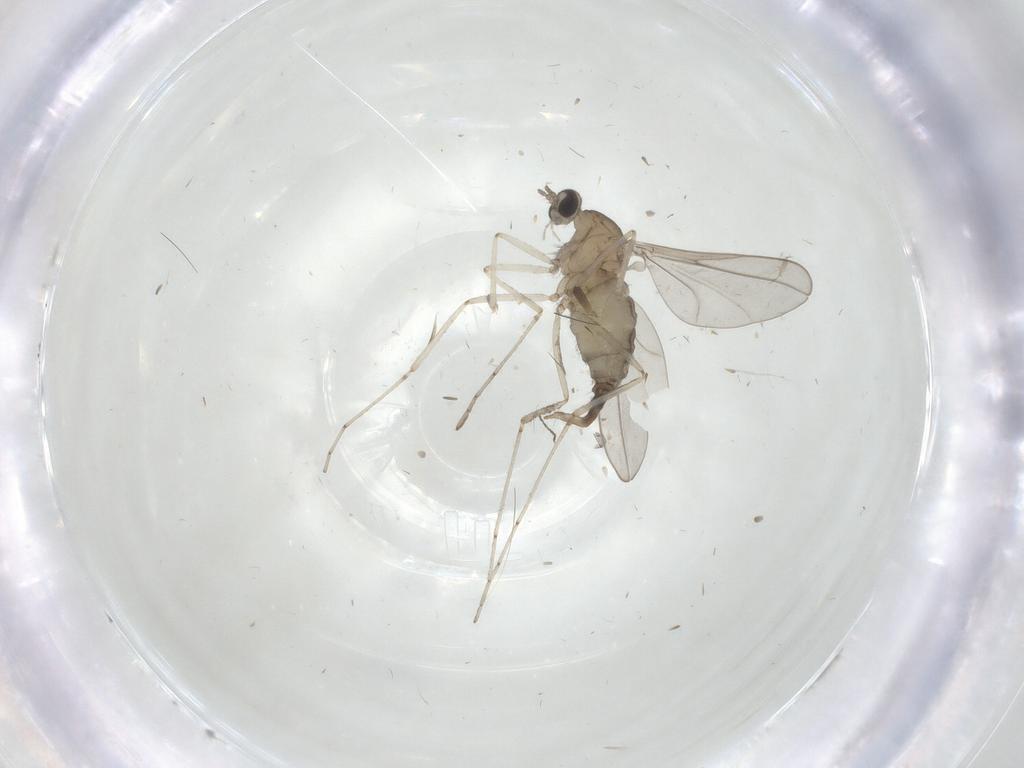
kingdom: Animalia
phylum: Arthropoda
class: Insecta
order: Diptera
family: Cecidomyiidae
